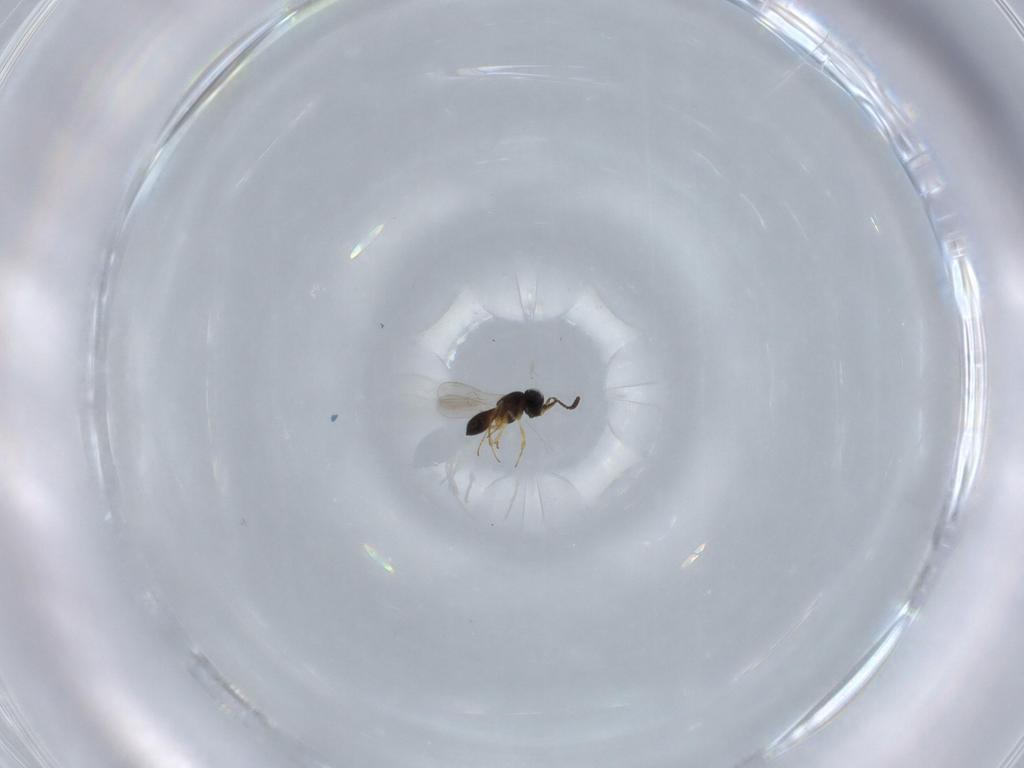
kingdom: Animalia
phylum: Arthropoda
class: Insecta
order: Hymenoptera
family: Scelionidae
